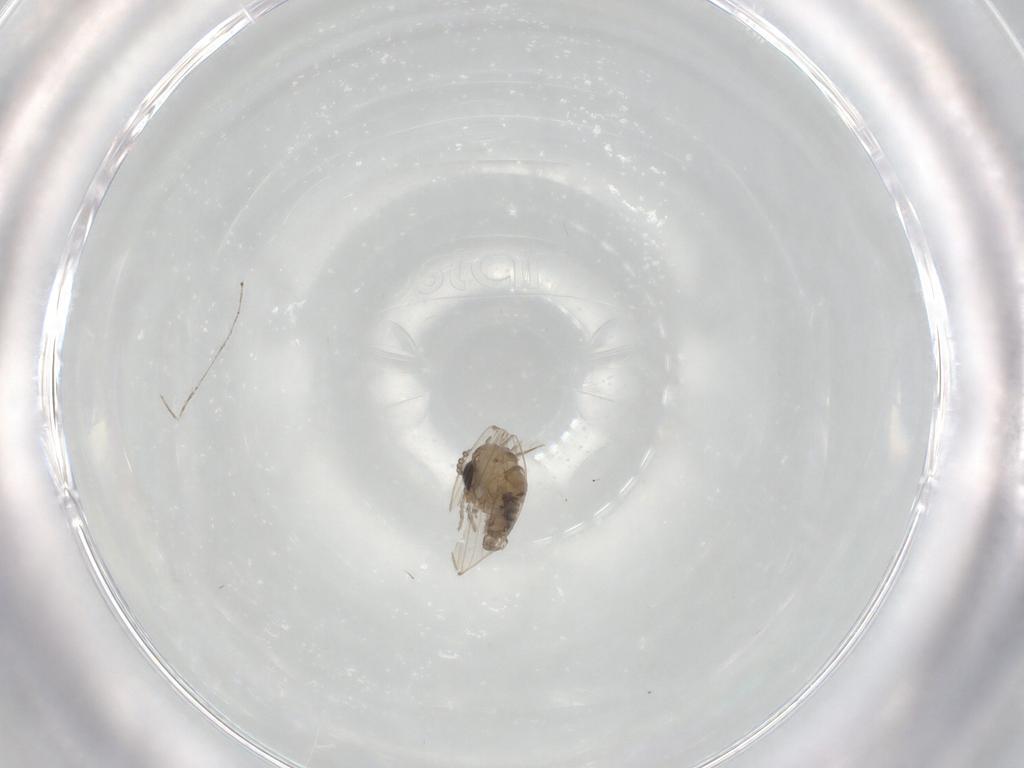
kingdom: Animalia
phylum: Arthropoda
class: Insecta
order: Diptera
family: Psychodidae
